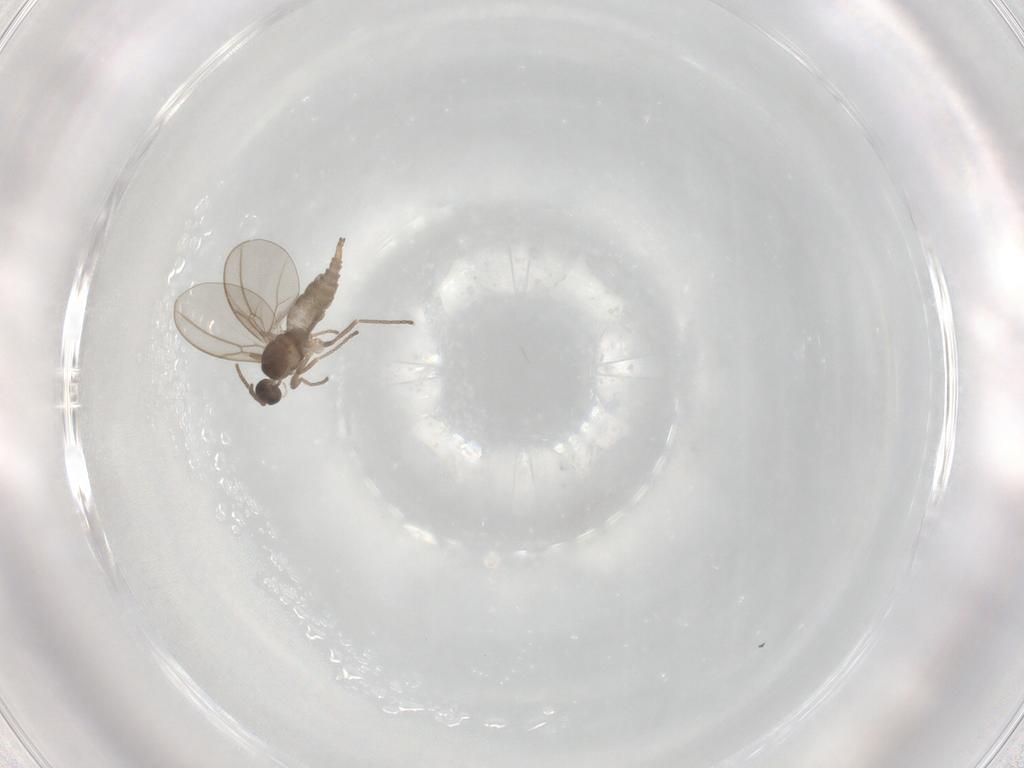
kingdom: Animalia
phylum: Arthropoda
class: Insecta
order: Diptera
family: Cecidomyiidae
